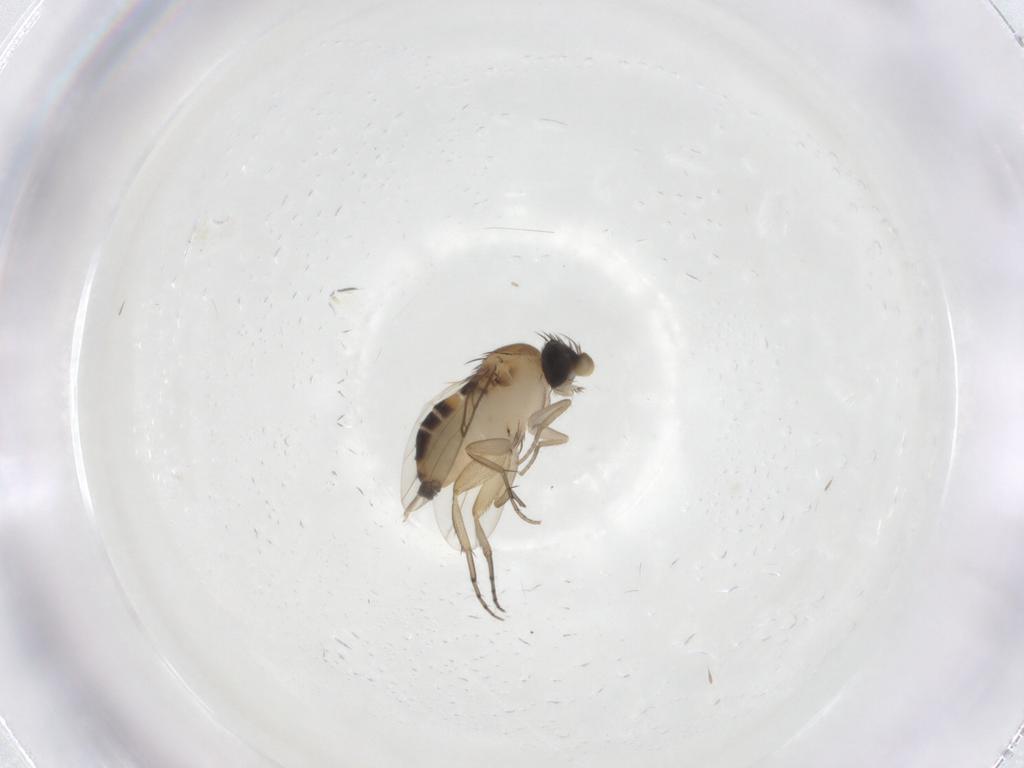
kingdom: Animalia
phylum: Arthropoda
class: Insecta
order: Diptera
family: Phoridae
